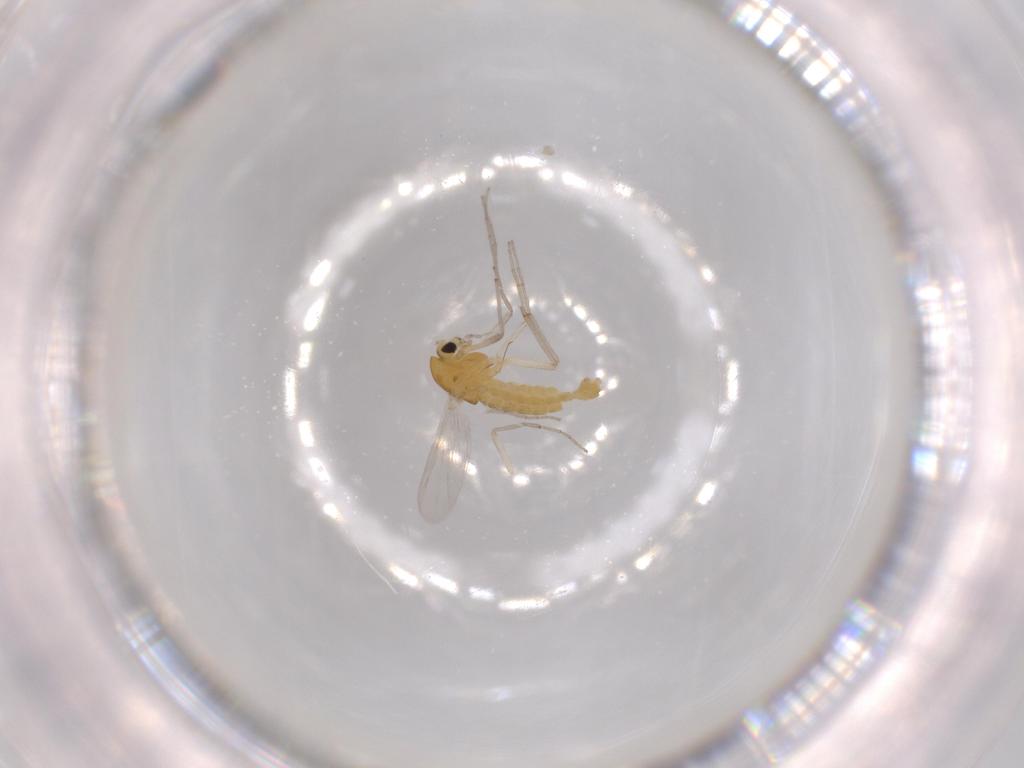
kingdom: Animalia
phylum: Arthropoda
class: Insecta
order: Diptera
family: Chironomidae
